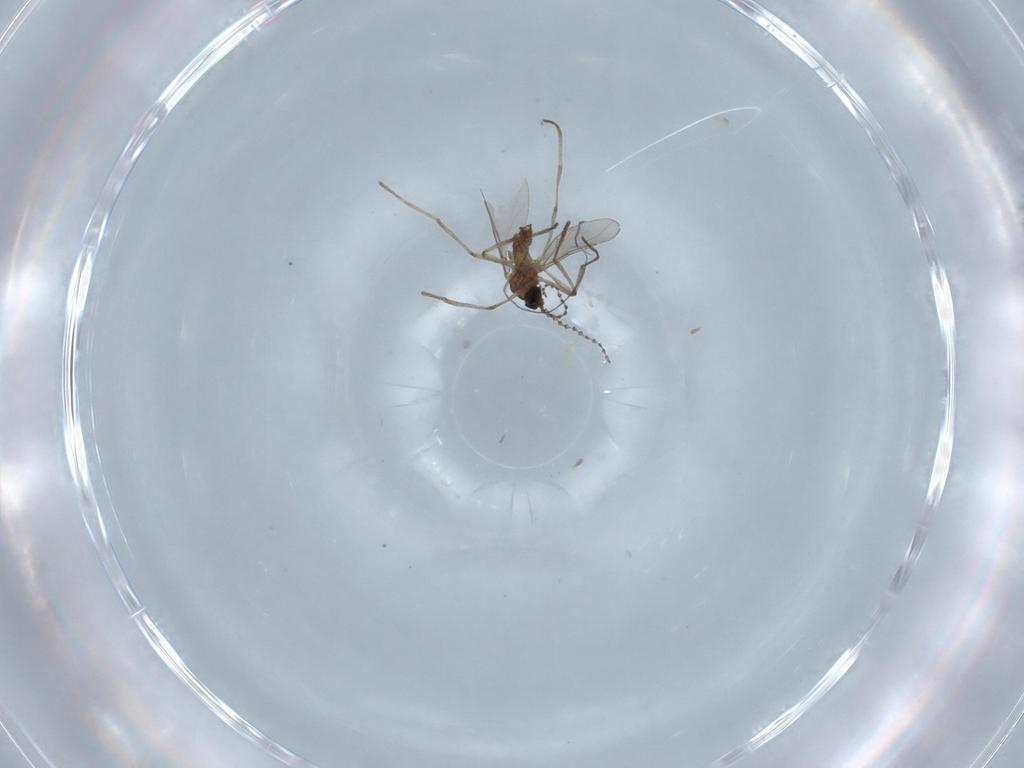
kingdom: Animalia
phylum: Arthropoda
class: Insecta
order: Diptera
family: Cecidomyiidae
